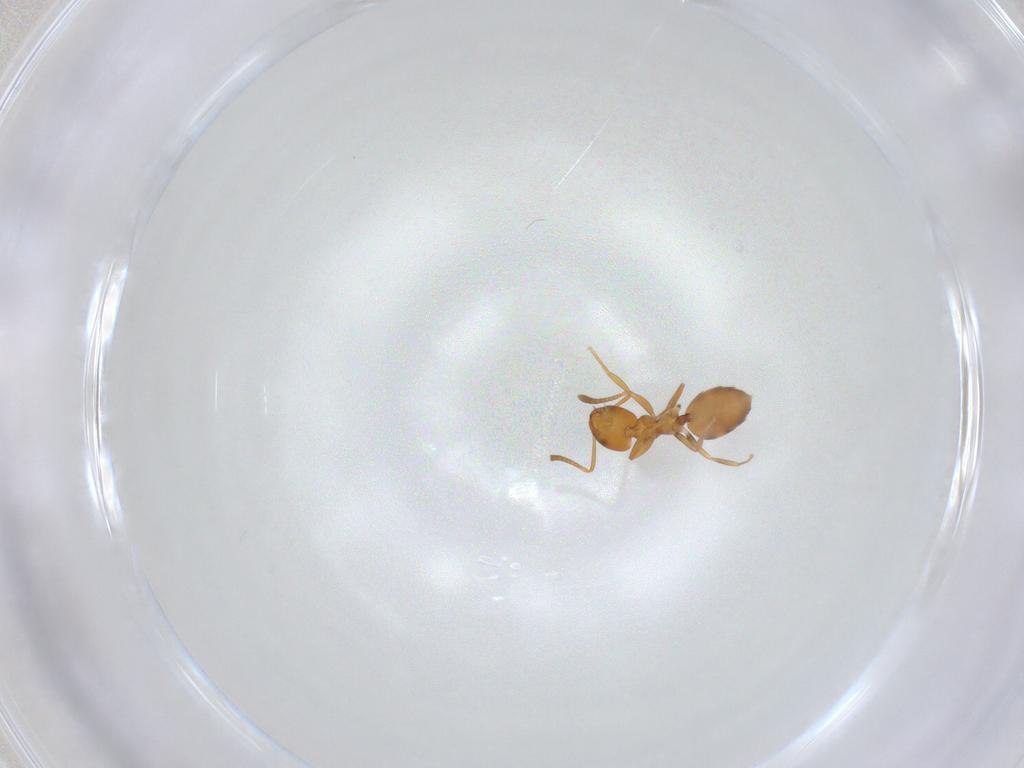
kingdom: Animalia
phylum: Arthropoda
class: Insecta
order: Hymenoptera
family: Formicidae
